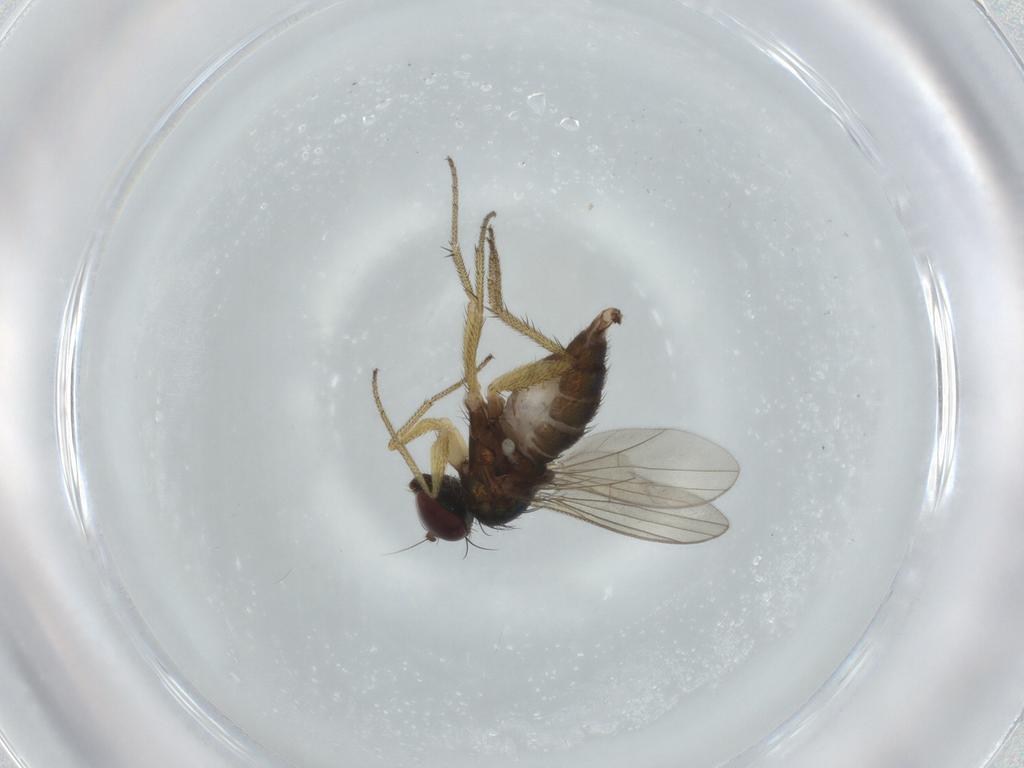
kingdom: Animalia
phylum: Arthropoda
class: Insecta
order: Diptera
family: Dolichopodidae
